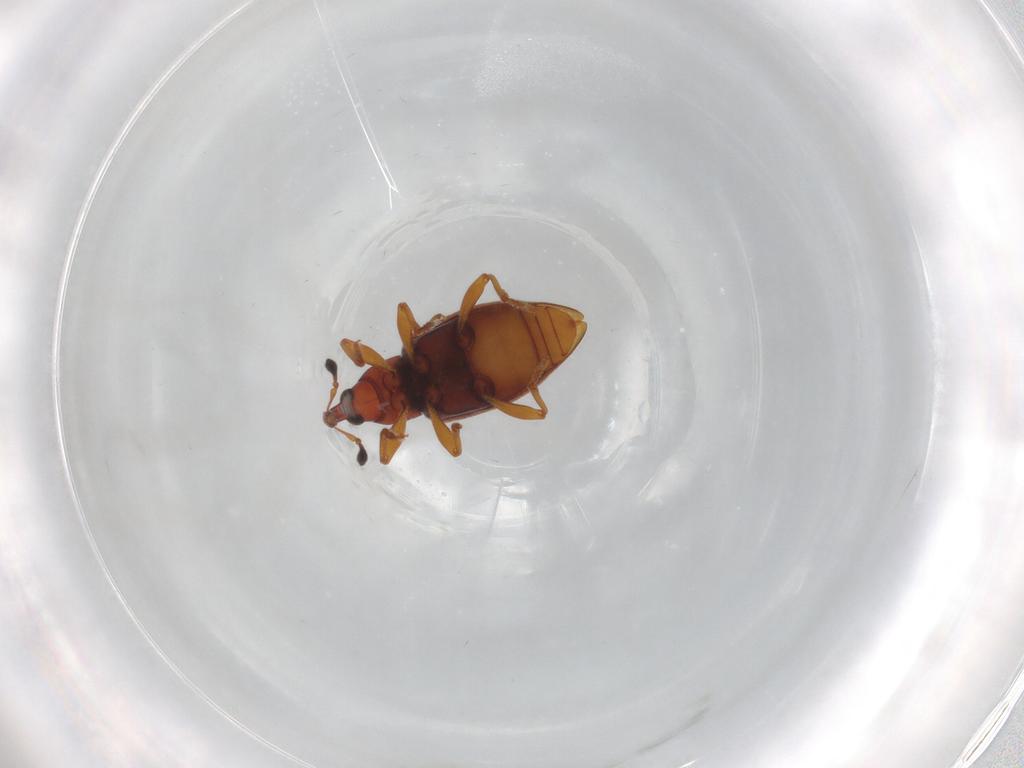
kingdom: Animalia
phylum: Arthropoda
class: Insecta
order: Coleoptera
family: Curculionidae
